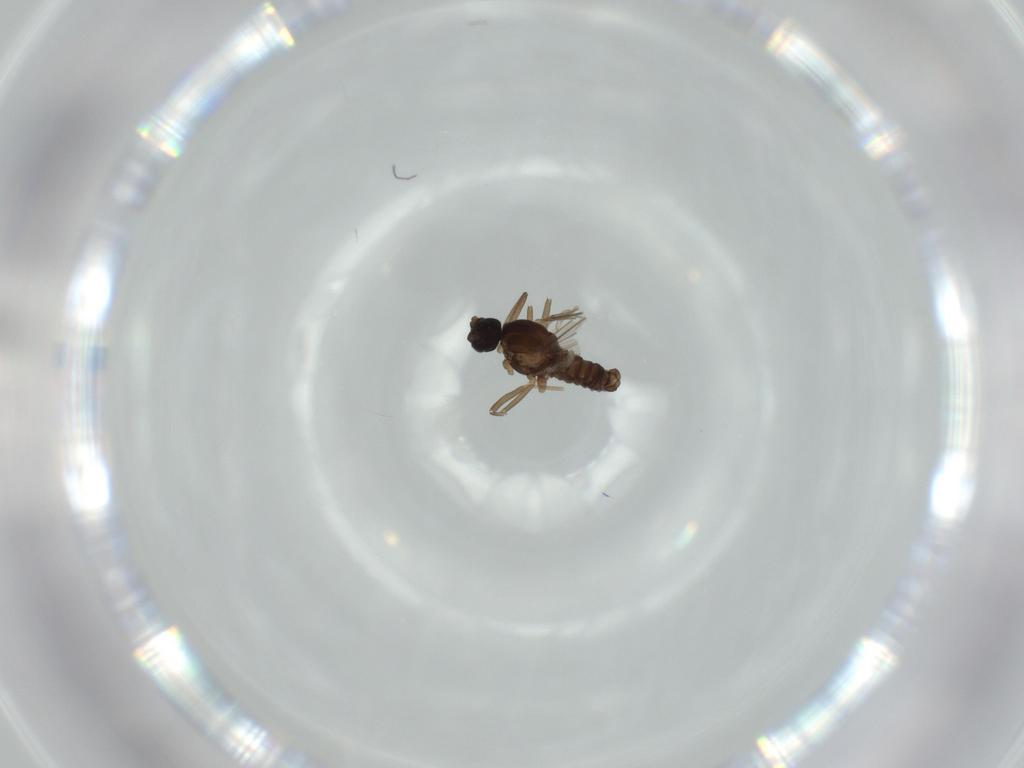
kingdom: Animalia
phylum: Arthropoda
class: Insecta
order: Diptera
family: Cecidomyiidae
